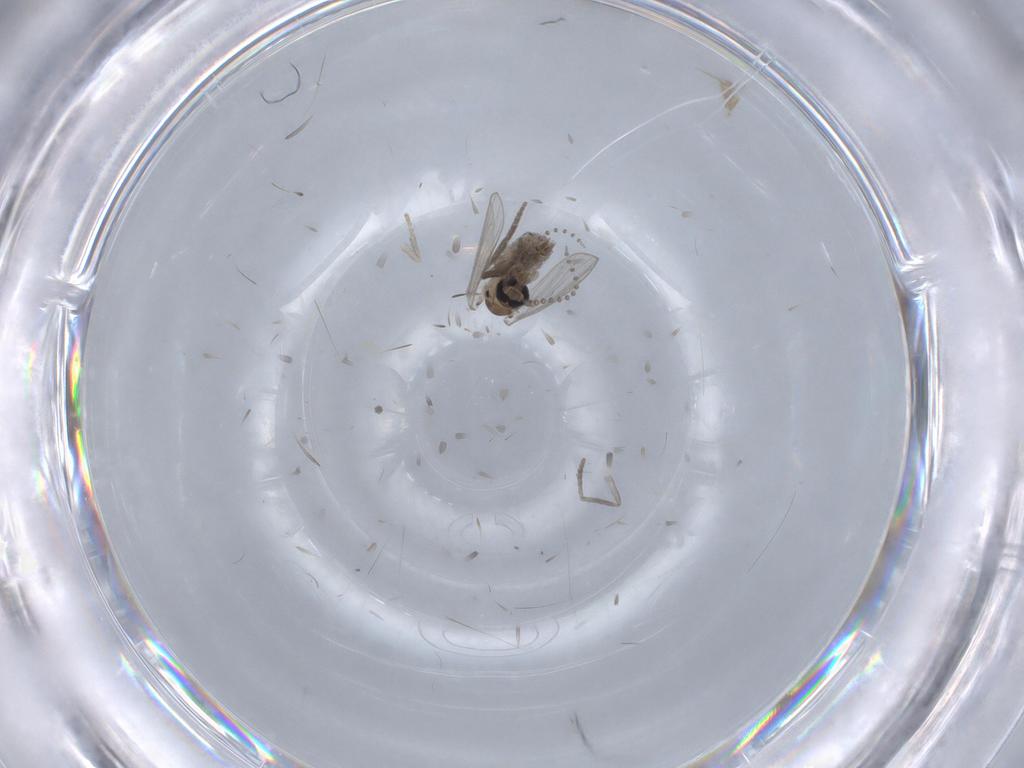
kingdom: Animalia
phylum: Arthropoda
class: Insecta
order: Diptera
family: Psychodidae
